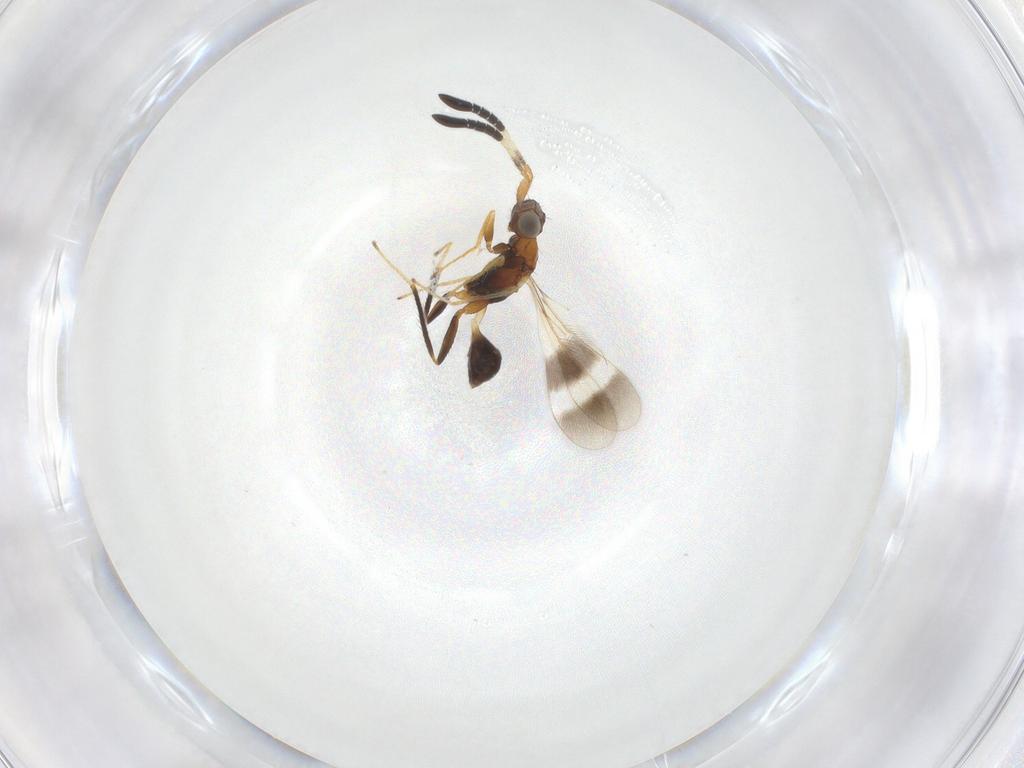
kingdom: Animalia
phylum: Arthropoda
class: Insecta
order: Hymenoptera
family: Mymaridae
